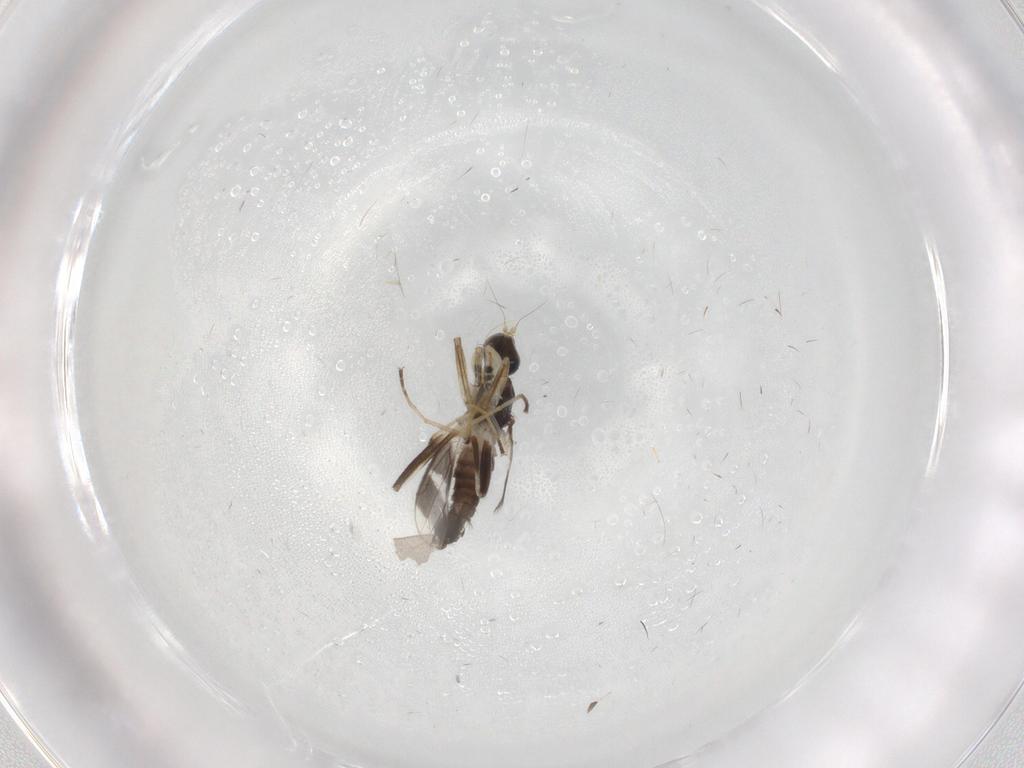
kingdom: Animalia
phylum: Arthropoda
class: Insecta
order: Diptera
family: Hybotidae
